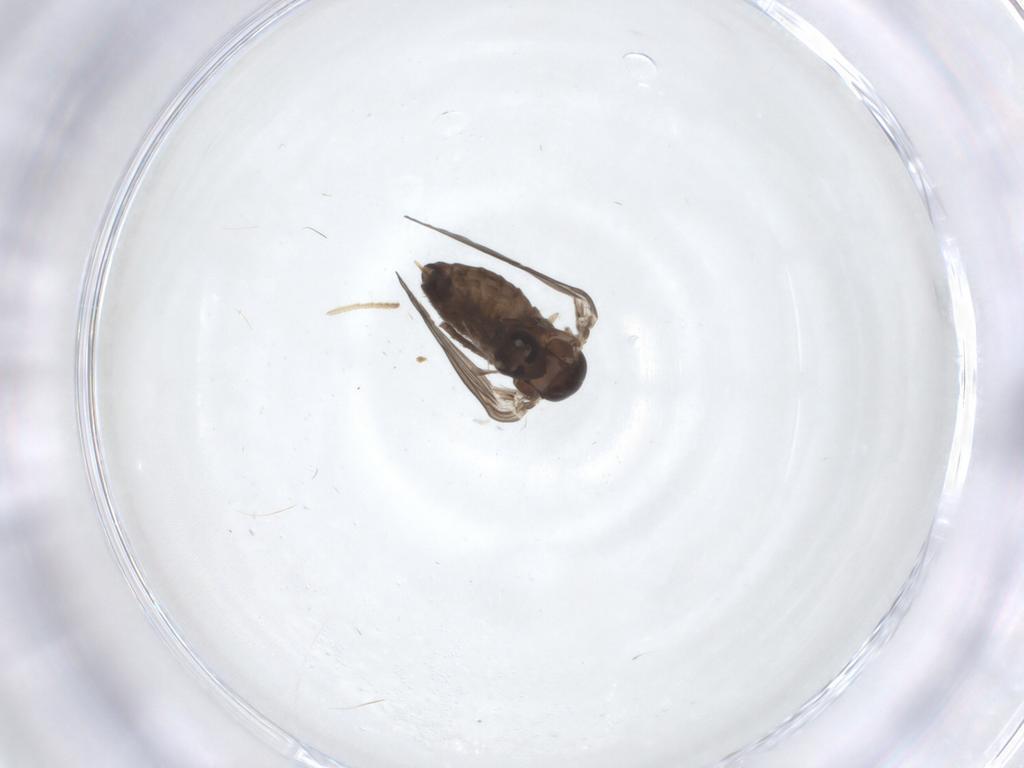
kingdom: Animalia
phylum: Arthropoda
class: Insecta
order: Diptera
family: Psychodidae
